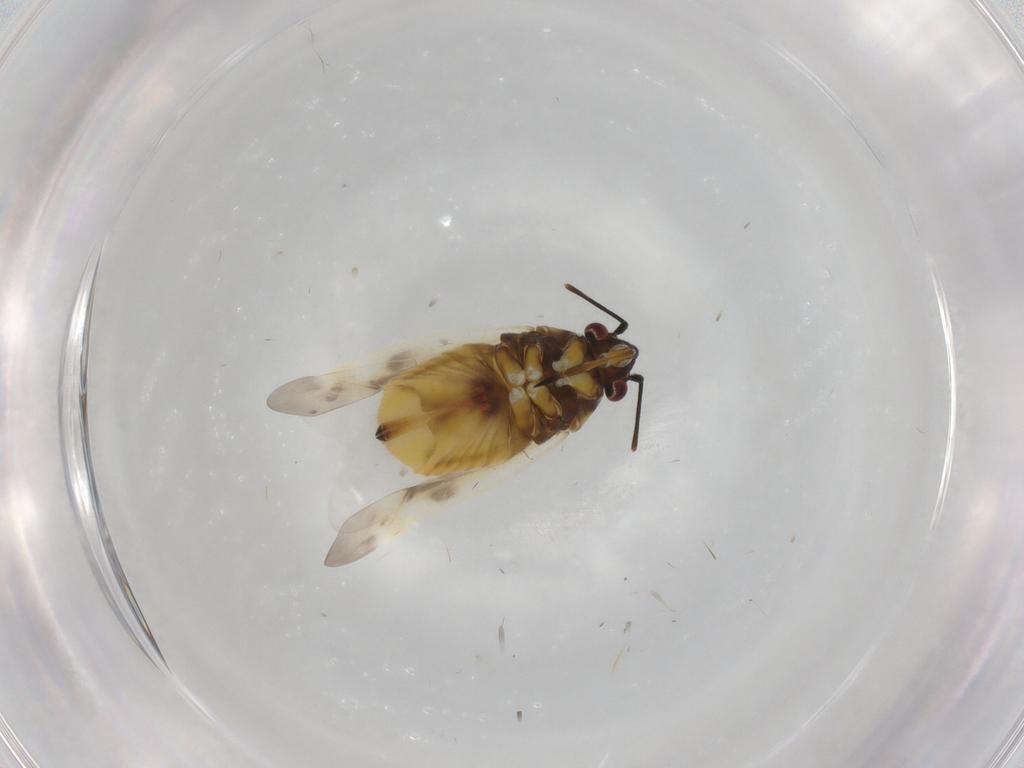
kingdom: Animalia
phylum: Arthropoda
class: Insecta
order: Hemiptera
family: Miridae
